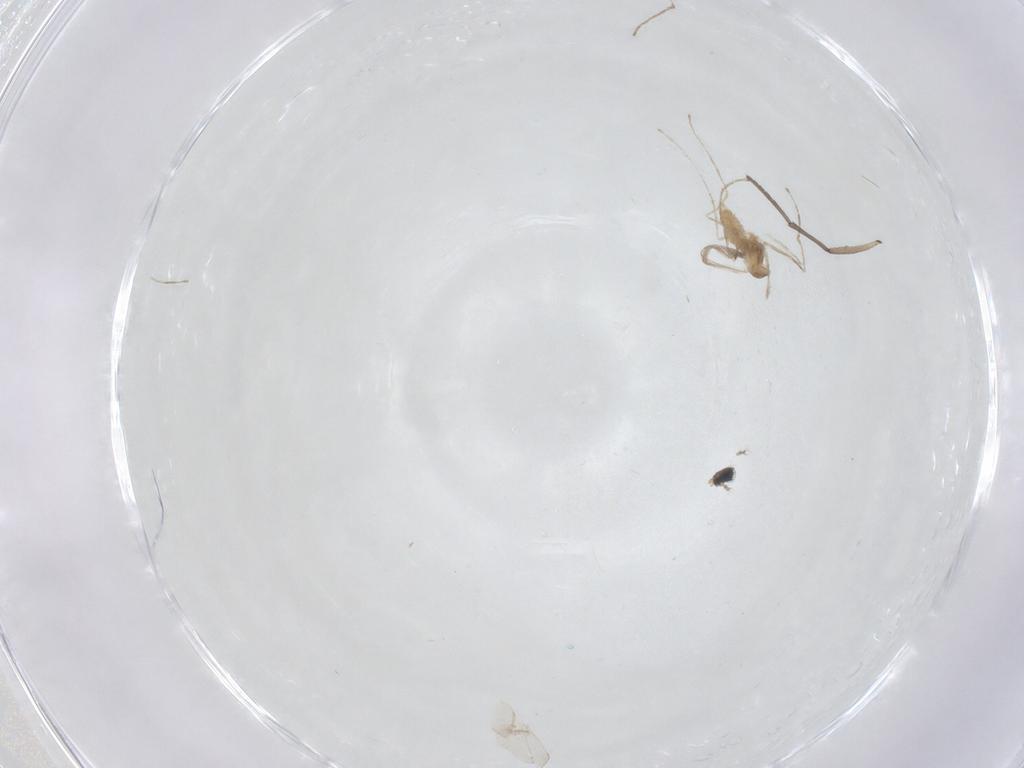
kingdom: Animalia
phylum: Arthropoda
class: Insecta
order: Diptera
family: Sciaridae
